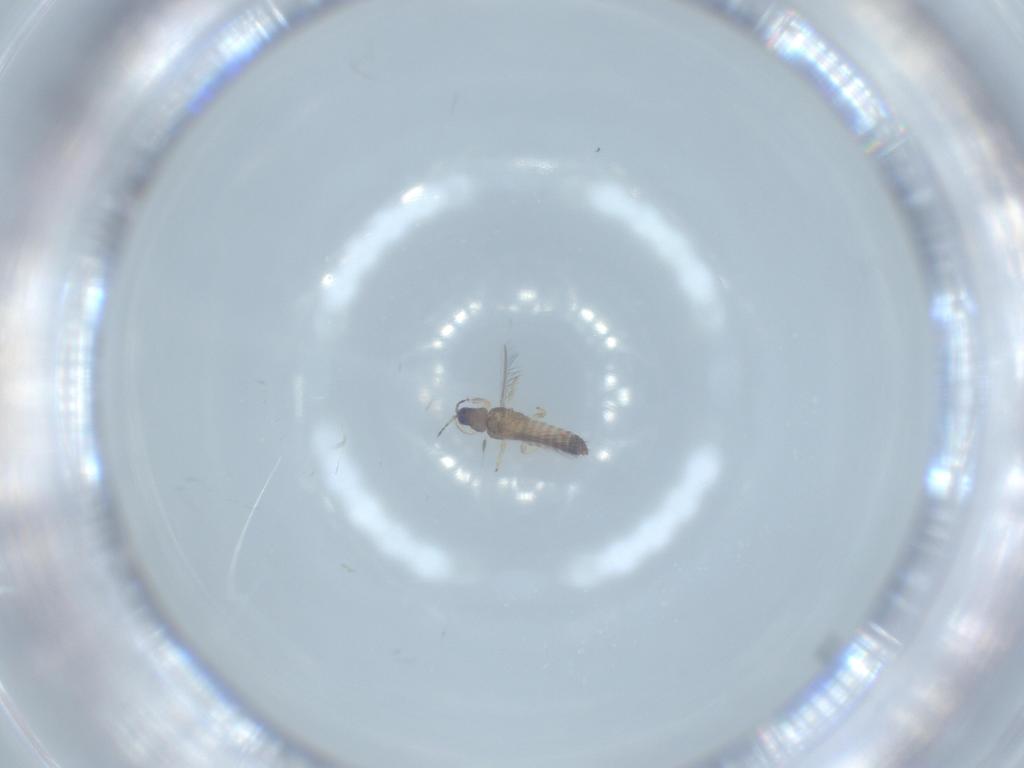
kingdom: Animalia
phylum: Arthropoda
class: Insecta
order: Thysanoptera
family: Thripidae
